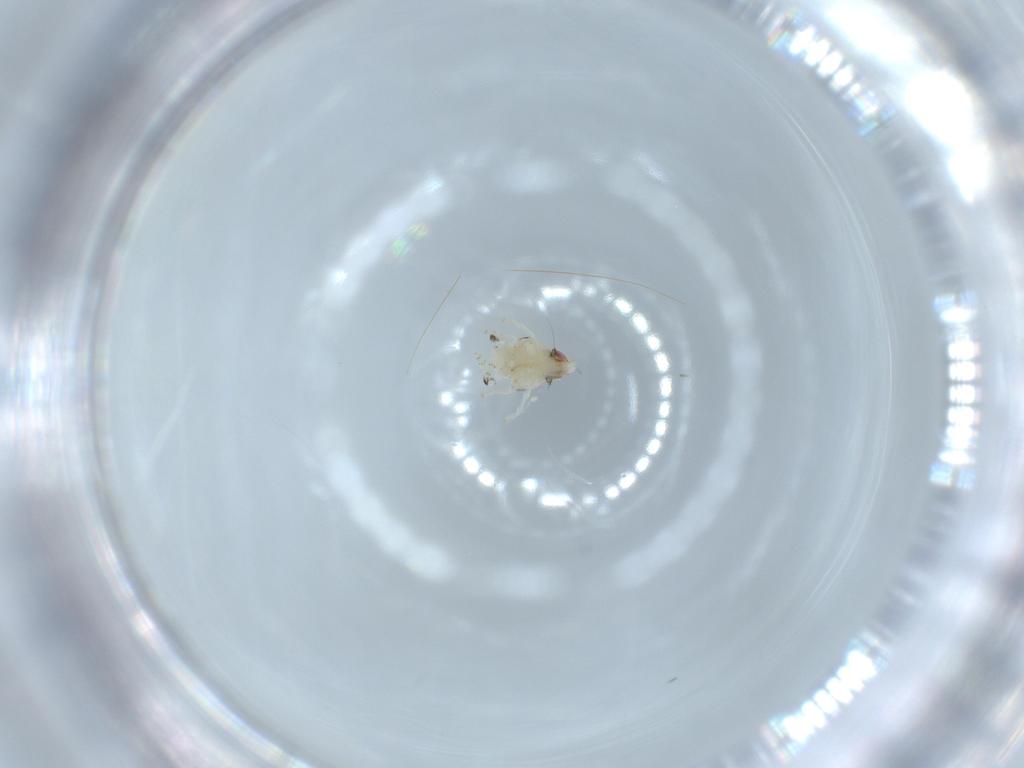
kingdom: Animalia
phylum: Arthropoda
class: Insecta
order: Hemiptera
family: Nogodinidae
